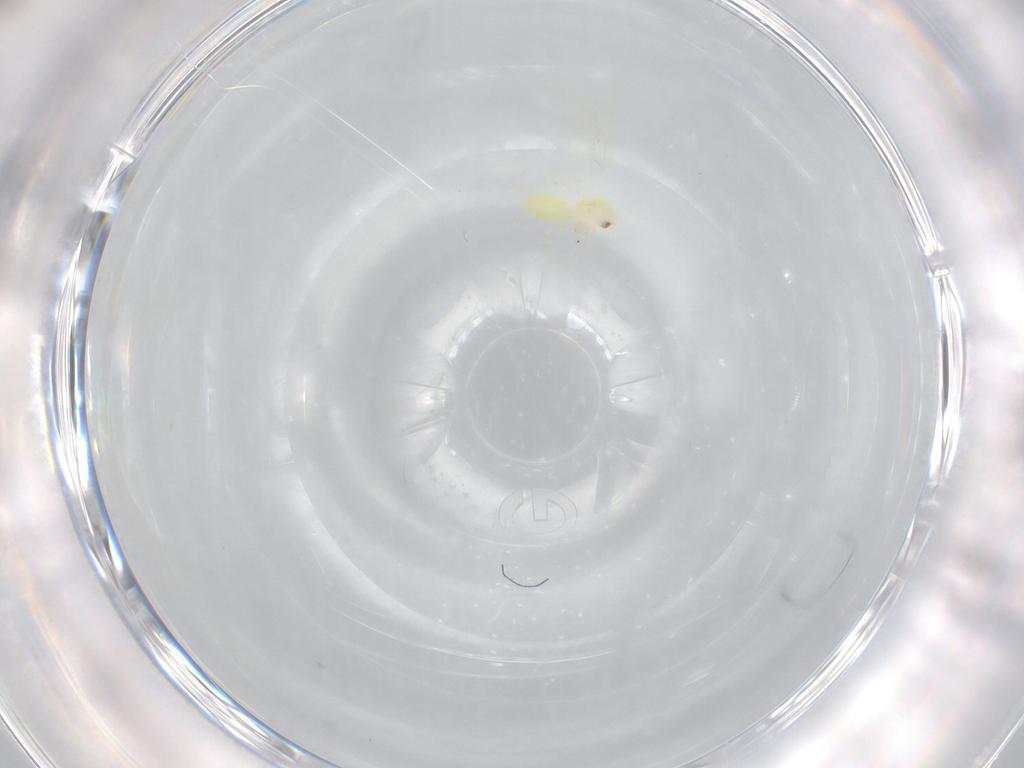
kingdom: Animalia
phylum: Arthropoda
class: Insecta
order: Hemiptera
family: Aleyrodidae
